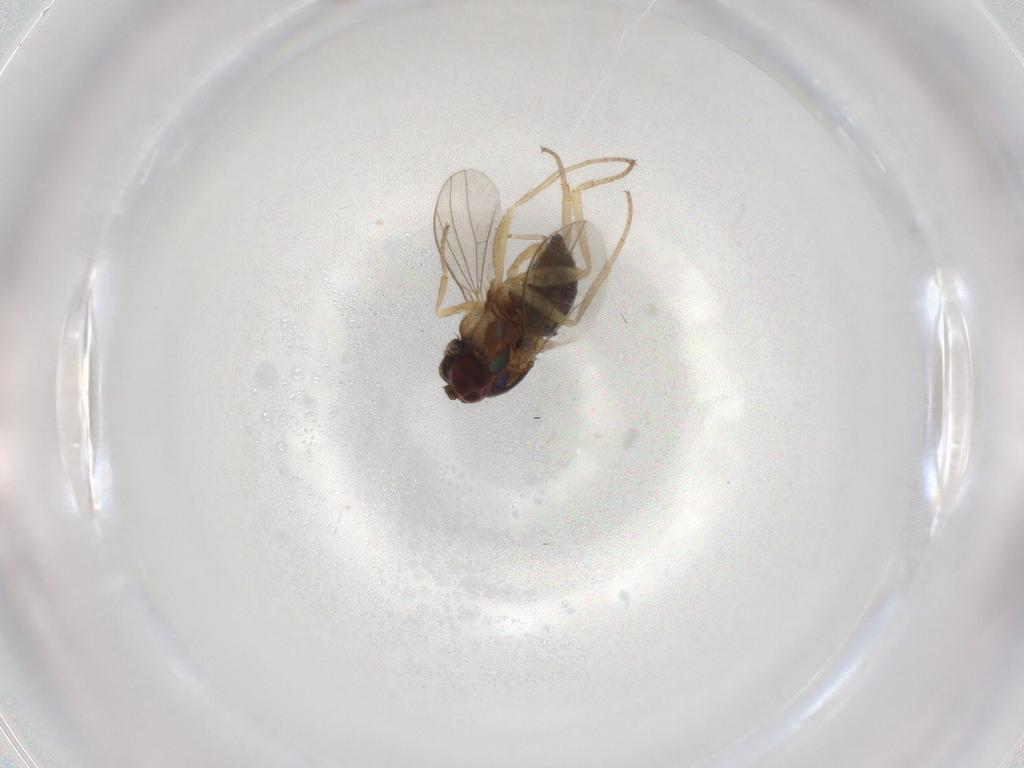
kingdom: Animalia
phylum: Arthropoda
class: Insecta
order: Diptera
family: Dolichopodidae
